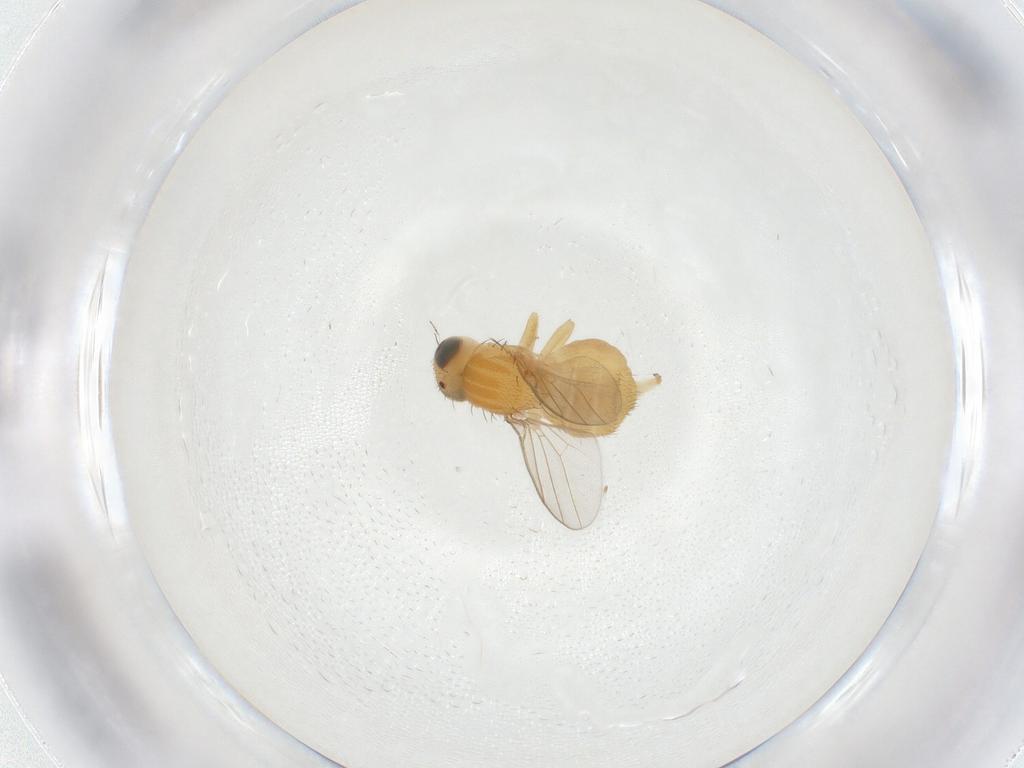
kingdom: Animalia
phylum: Arthropoda
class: Insecta
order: Diptera
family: Chloropidae
